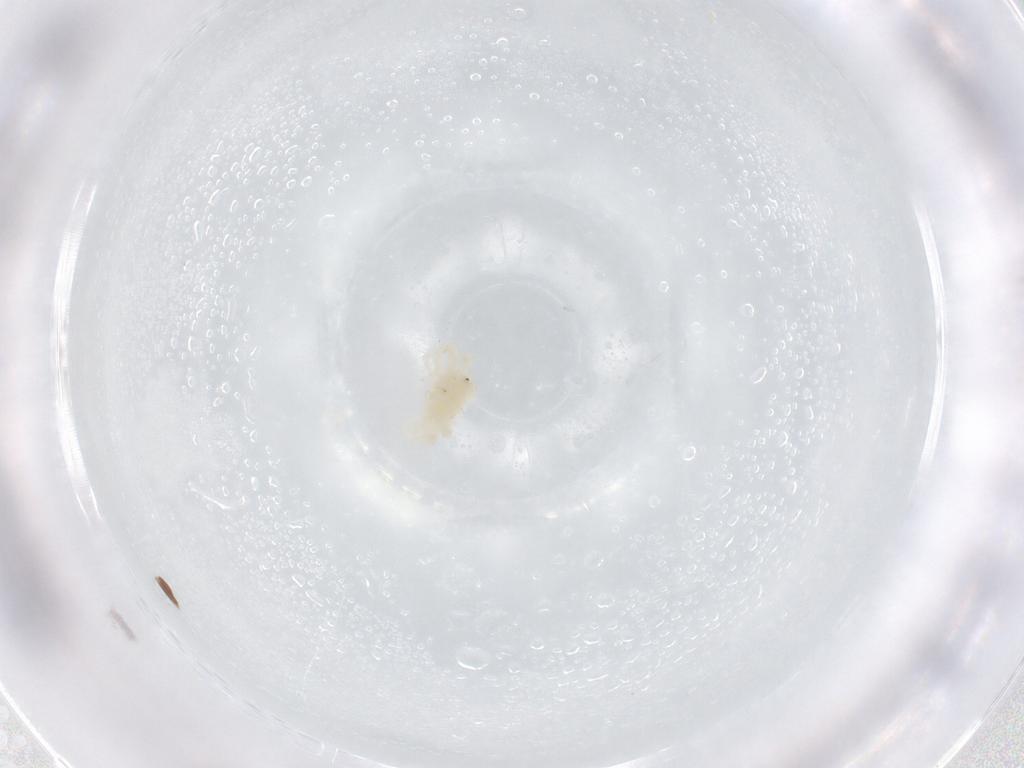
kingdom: Animalia
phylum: Arthropoda
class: Arachnida
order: Trombidiformes
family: Anystidae
